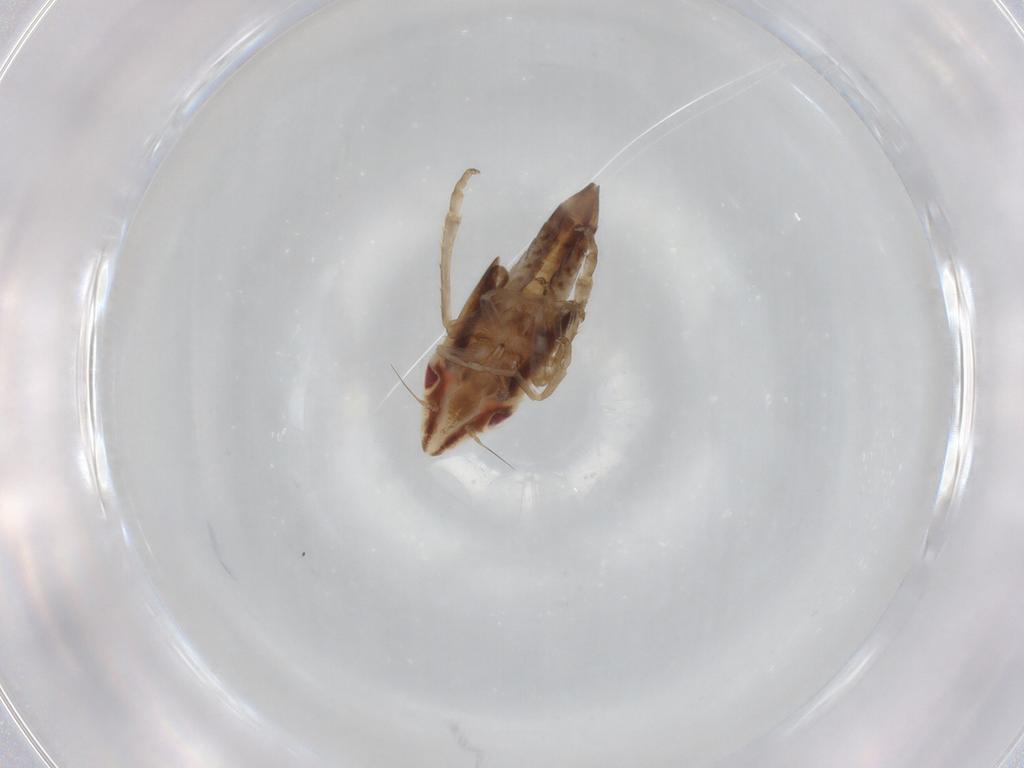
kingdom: Animalia
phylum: Arthropoda
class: Insecta
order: Hemiptera
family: Cicadellidae
